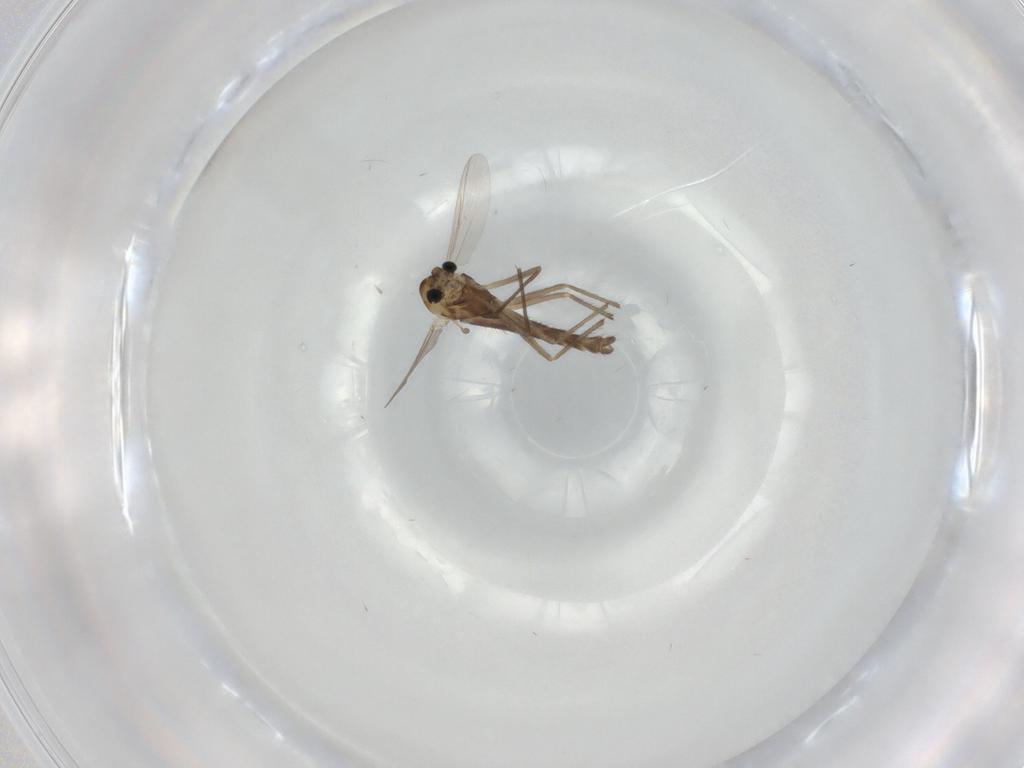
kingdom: Animalia
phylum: Arthropoda
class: Insecta
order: Diptera
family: Chironomidae
